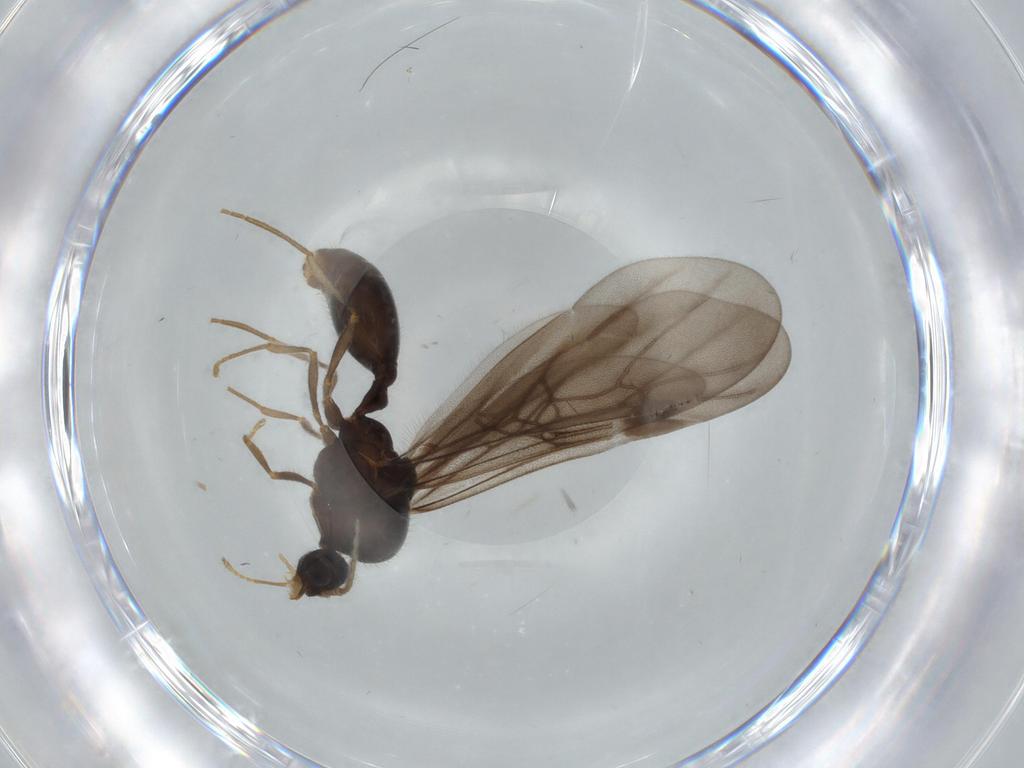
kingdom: Animalia
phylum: Arthropoda
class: Insecta
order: Hymenoptera
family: Formicidae
